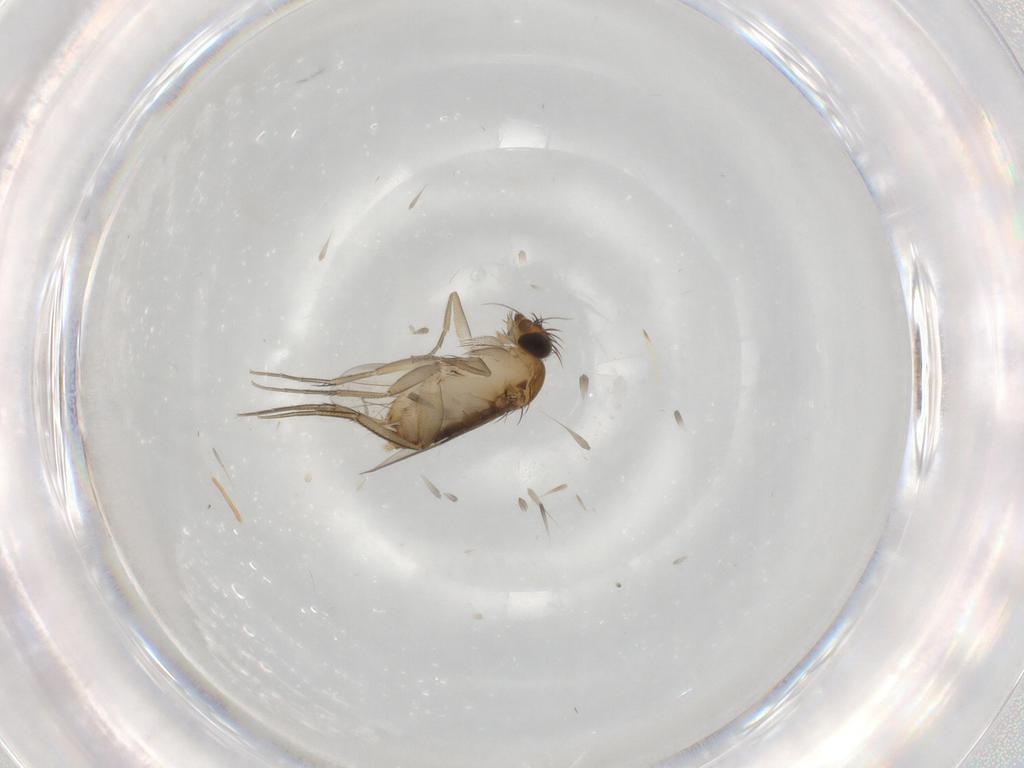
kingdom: Animalia
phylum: Arthropoda
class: Insecta
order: Diptera
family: Phoridae
